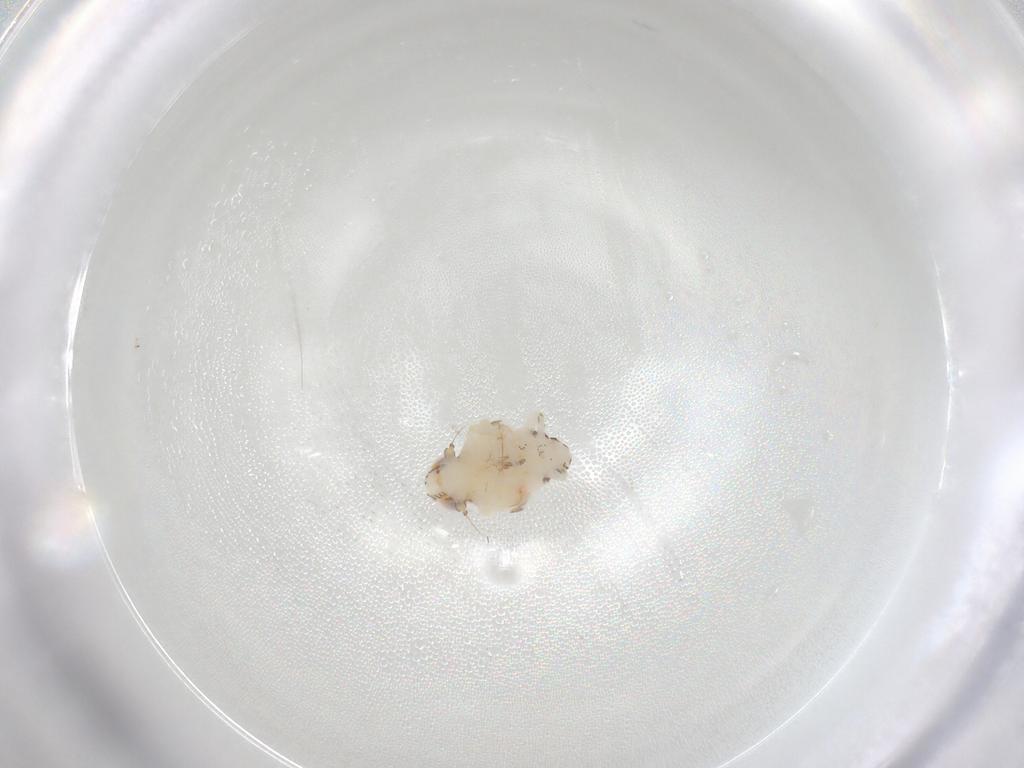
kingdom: Animalia
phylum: Arthropoda
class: Insecta
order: Hemiptera
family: Nogodinidae
